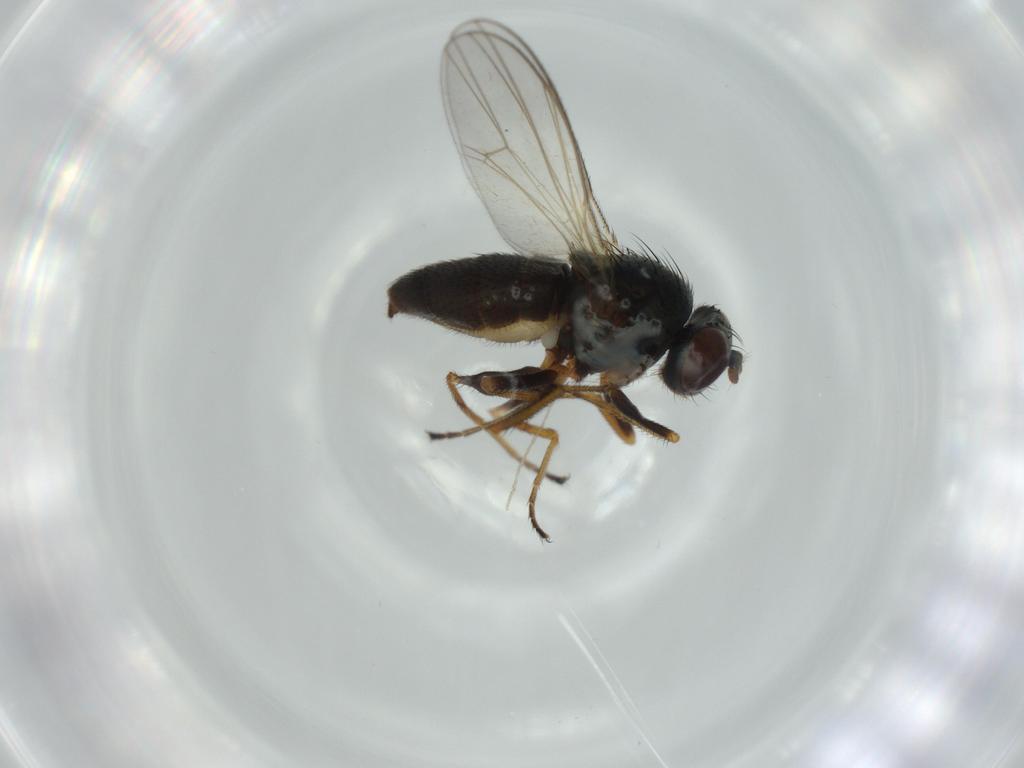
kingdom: Animalia
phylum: Arthropoda
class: Insecta
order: Diptera
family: Ephydridae
